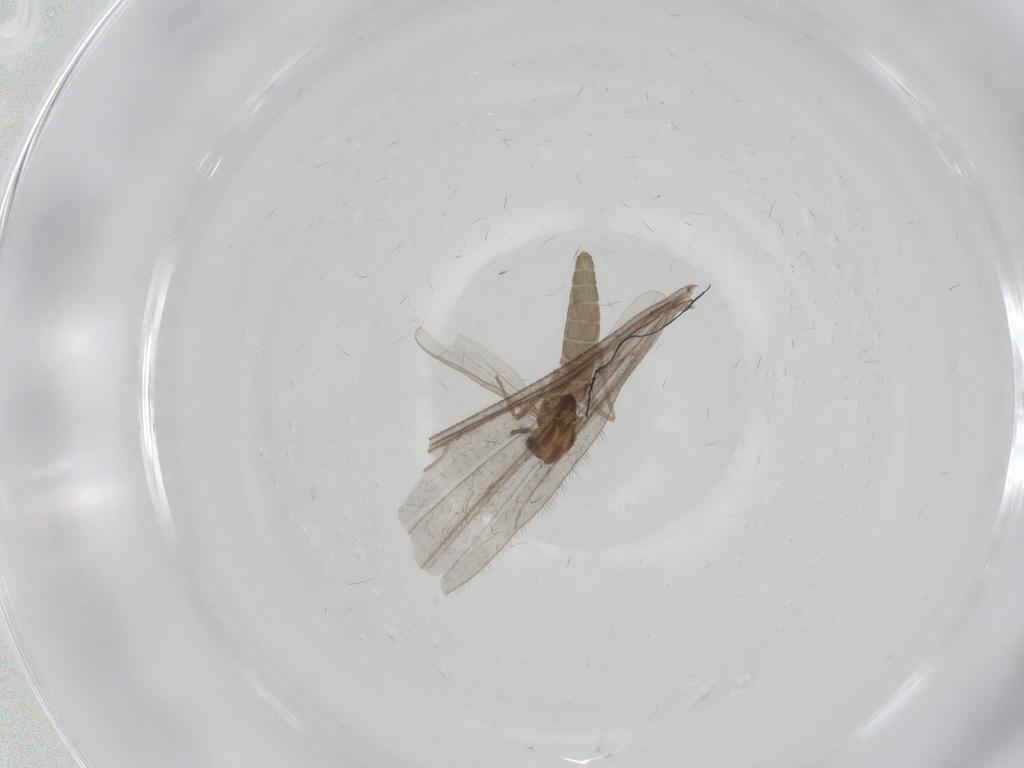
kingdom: Animalia
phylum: Arthropoda
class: Insecta
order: Diptera
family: Chironomidae
